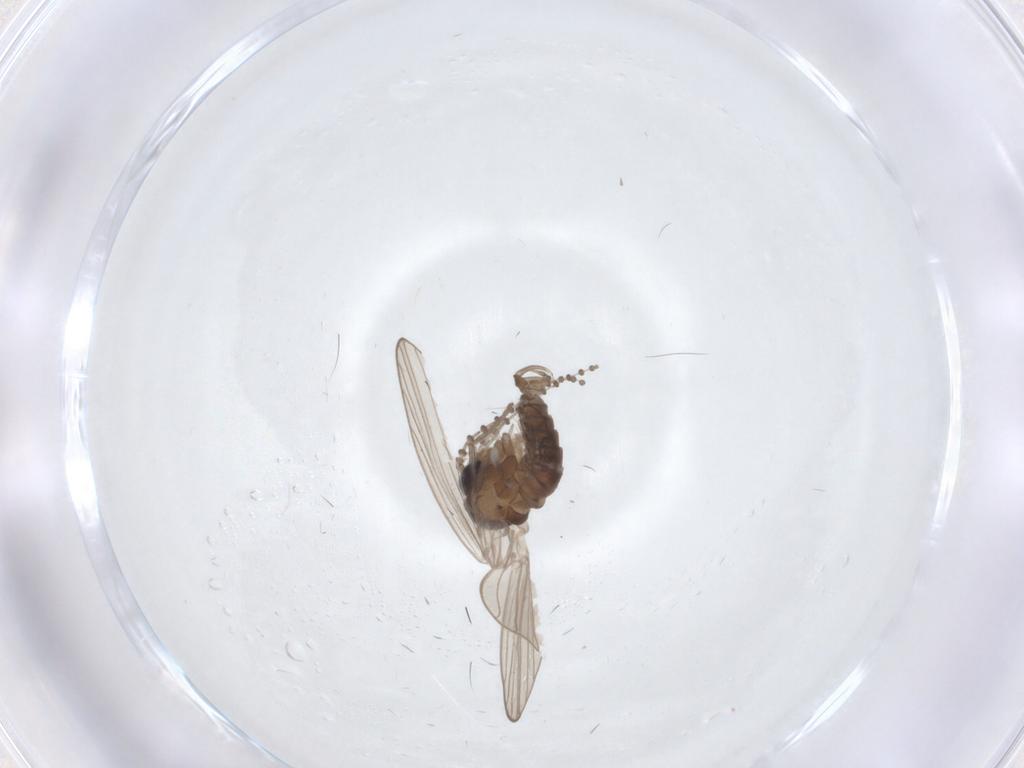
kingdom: Animalia
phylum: Arthropoda
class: Insecta
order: Diptera
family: Psychodidae
